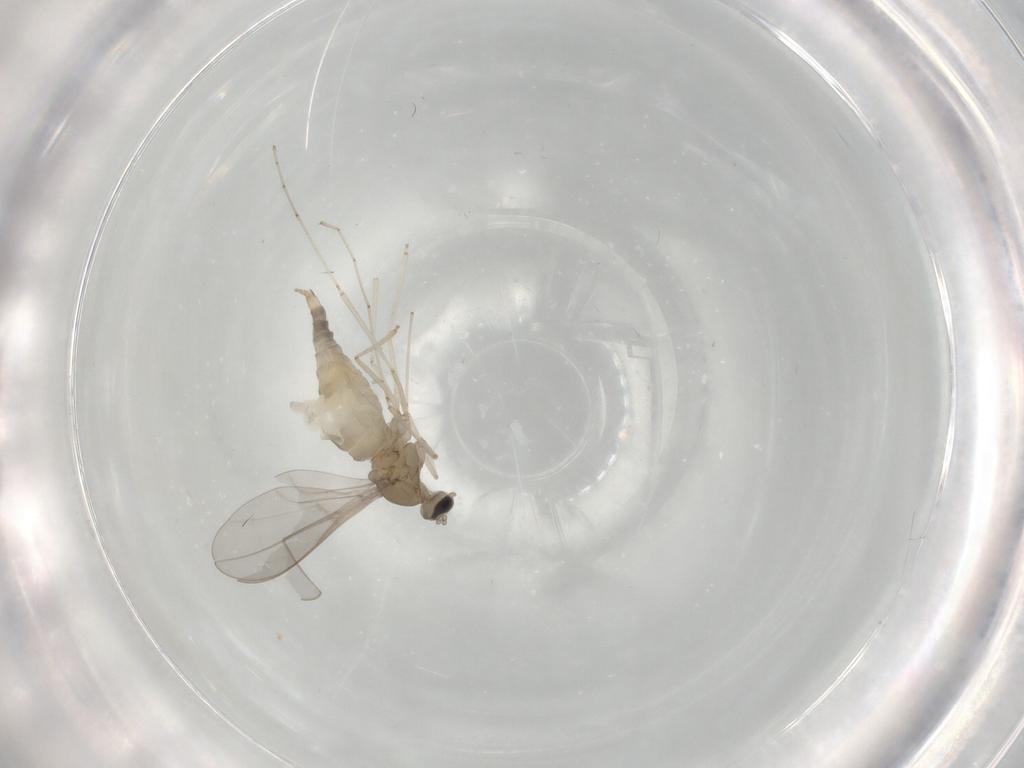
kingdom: Animalia
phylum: Arthropoda
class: Insecta
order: Diptera
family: Cecidomyiidae
